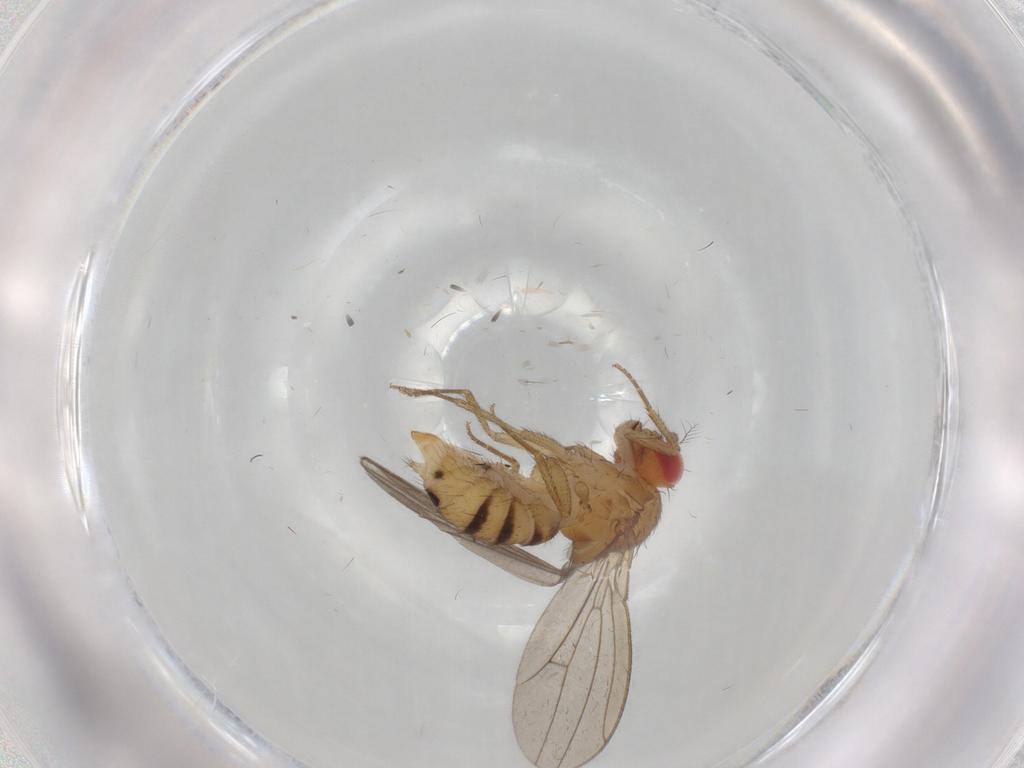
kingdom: Animalia
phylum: Arthropoda
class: Insecta
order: Diptera
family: Drosophilidae
